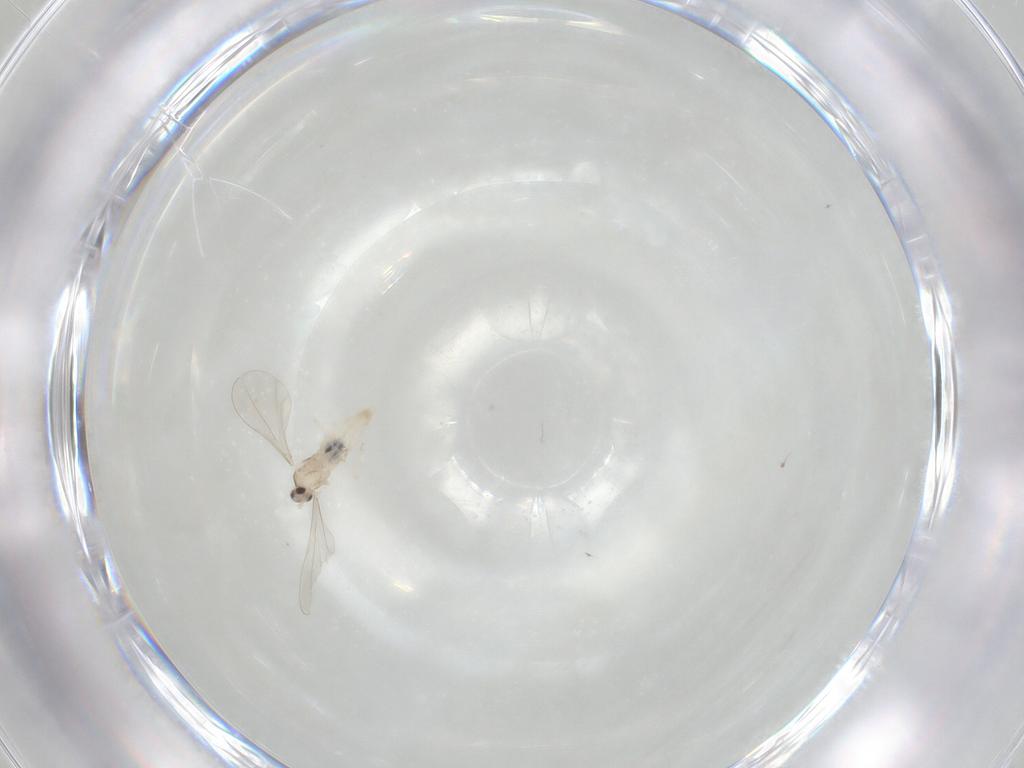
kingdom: Animalia
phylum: Arthropoda
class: Insecta
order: Diptera
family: Cecidomyiidae
